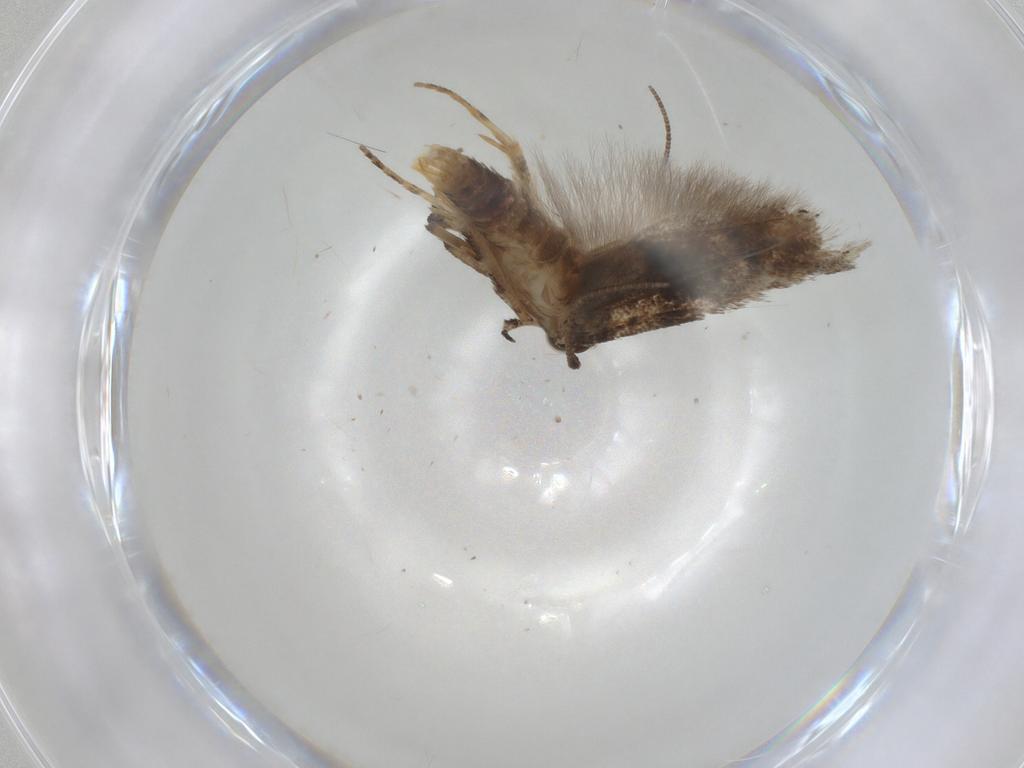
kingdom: Animalia
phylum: Arthropoda
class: Insecta
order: Lepidoptera
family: Gelechiidae
